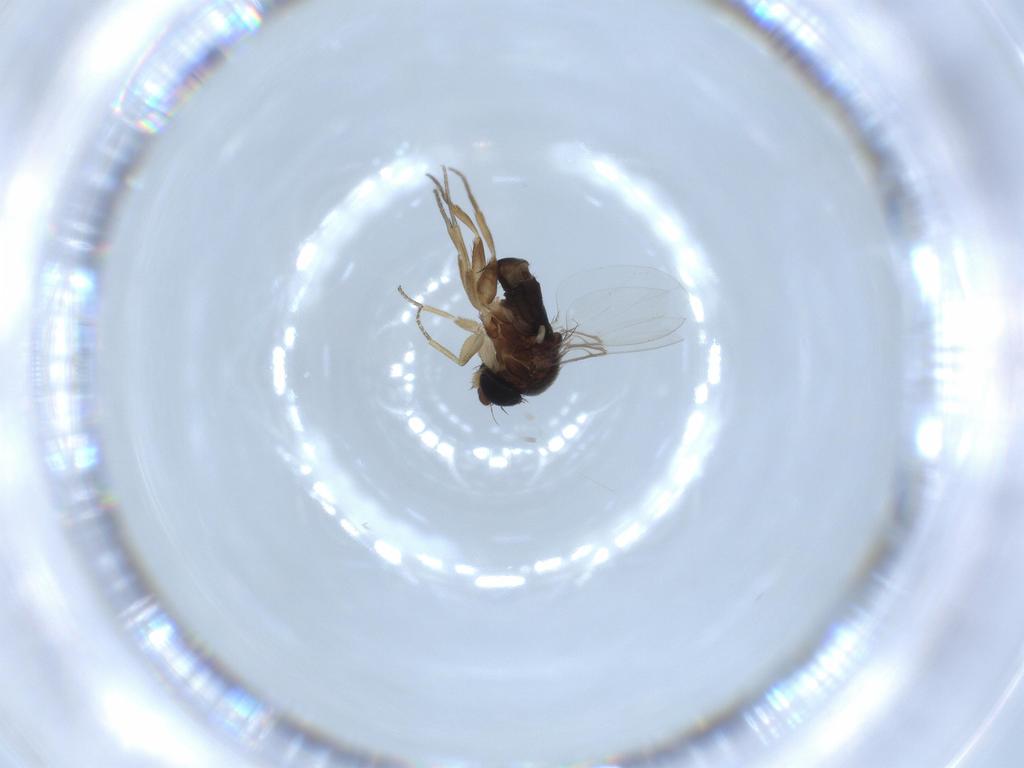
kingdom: Animalia
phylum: Arthropoda
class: Insecta
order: Diptera
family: Phoridae
